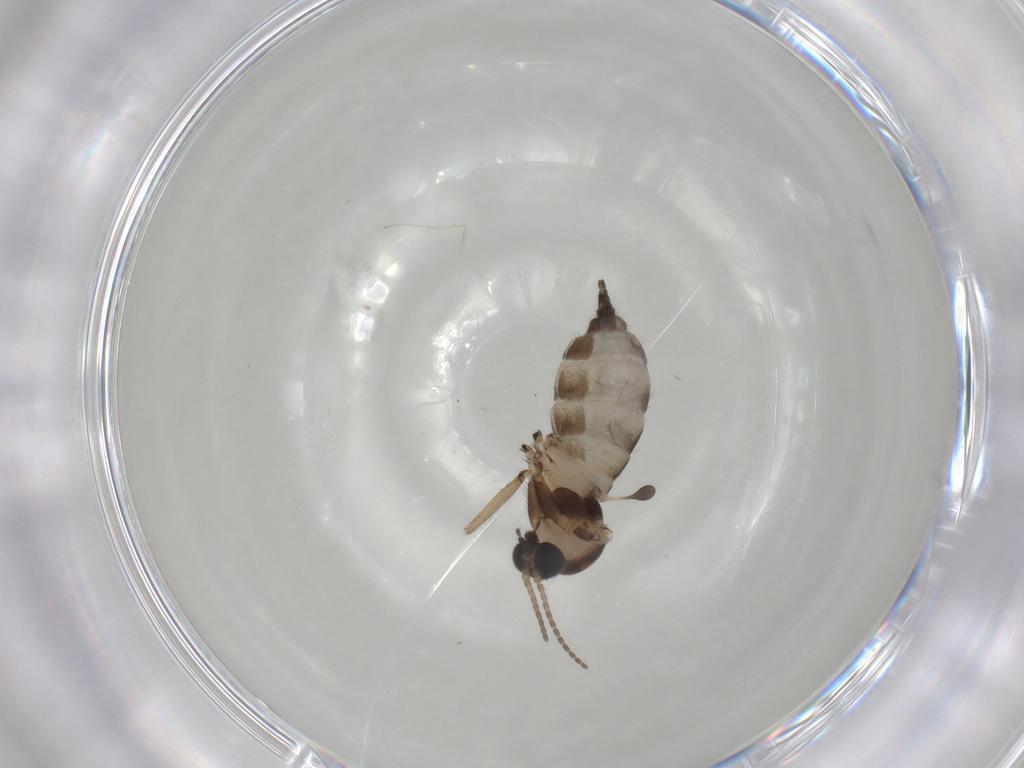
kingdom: Animalia
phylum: Arthropoda
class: Insecta
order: Diptera
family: Sciaridae
